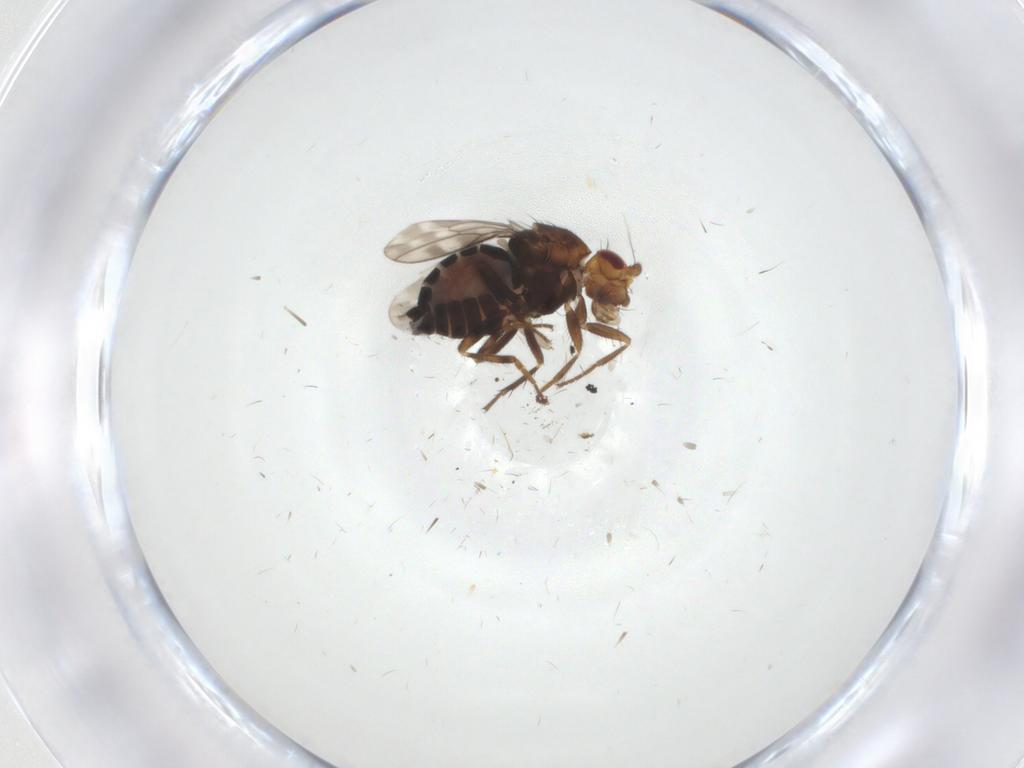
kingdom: Animalia
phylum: Arthropoda
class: Insecta
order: Diptera
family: Sphaeroceridae
